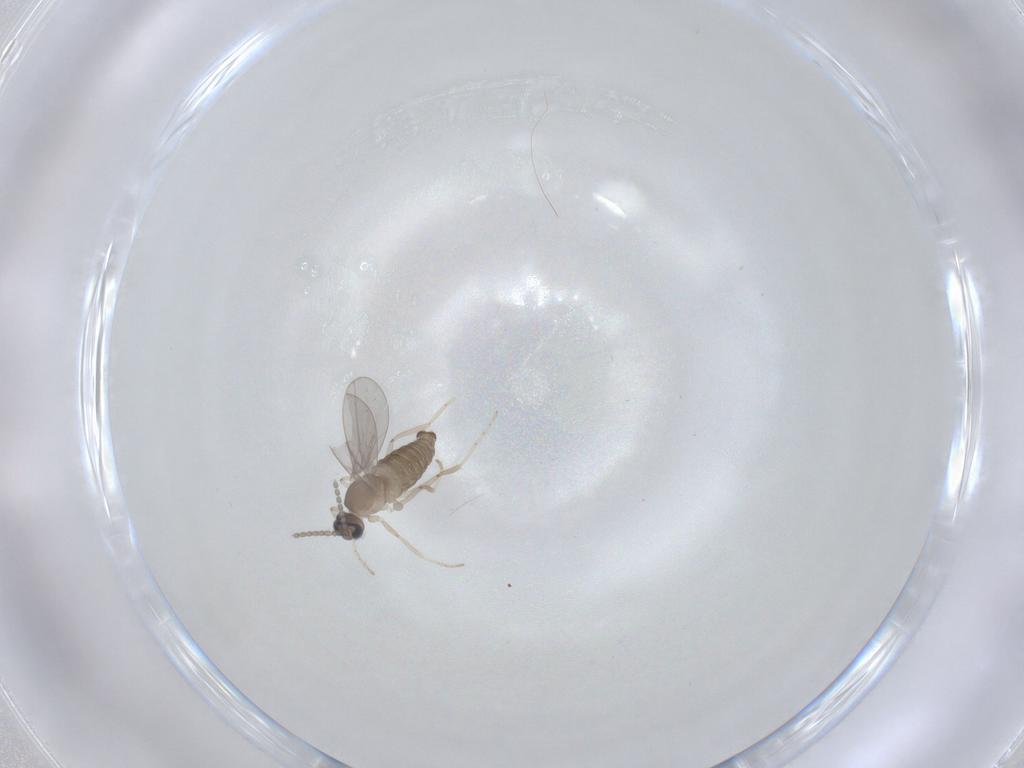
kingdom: Animalia
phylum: Arthropoda
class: Insecta
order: Diptera
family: Cecidomyiidae
